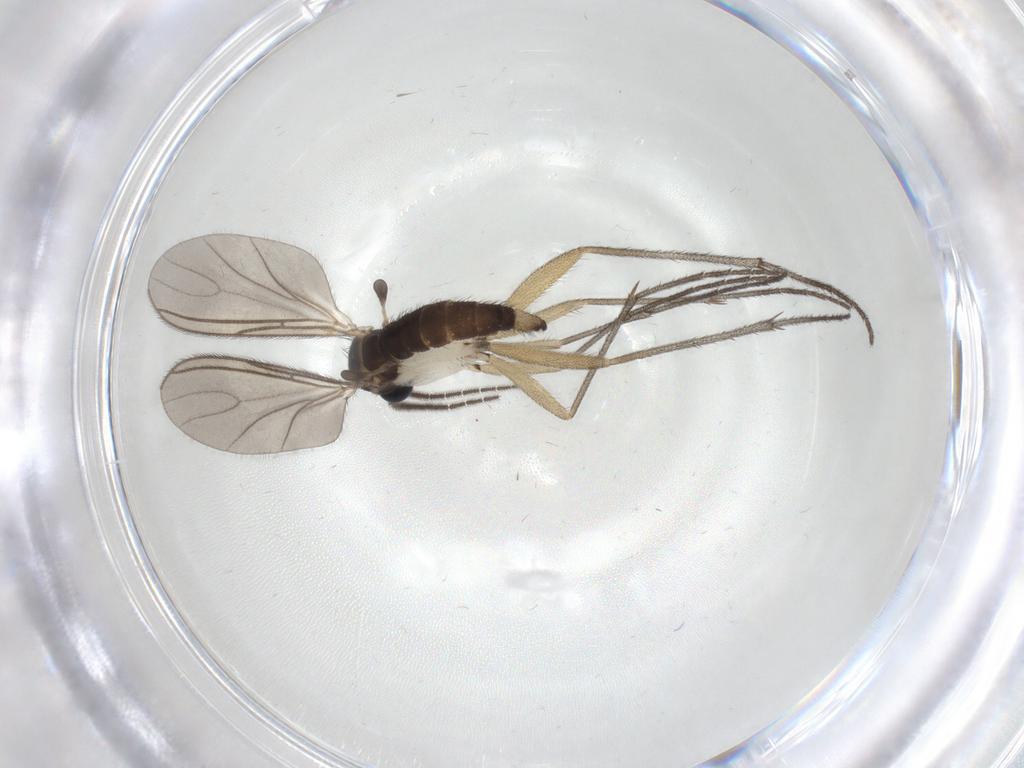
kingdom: Animalia
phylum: Arthropoda
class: Insecta
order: Diptera
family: Sciaridae
